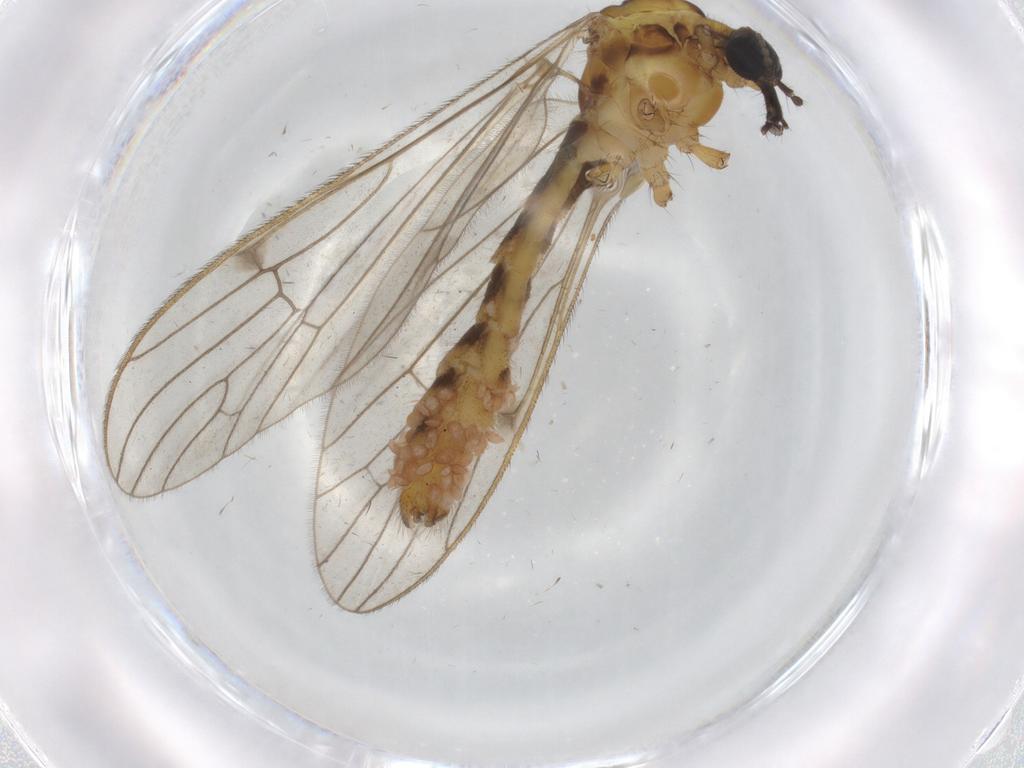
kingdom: Animalia
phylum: Arthropoda
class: Insecta
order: Diptera
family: Phoridae
